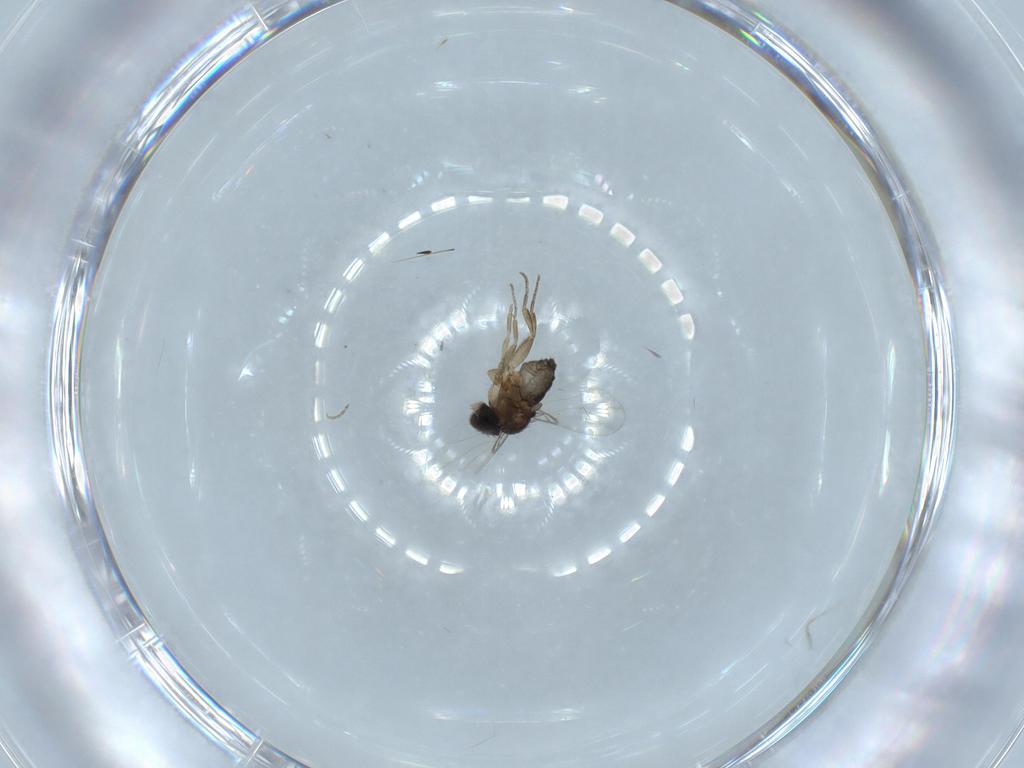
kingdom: Animalia
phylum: Arthropoda
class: Insecta
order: Diptera
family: Phoridae
